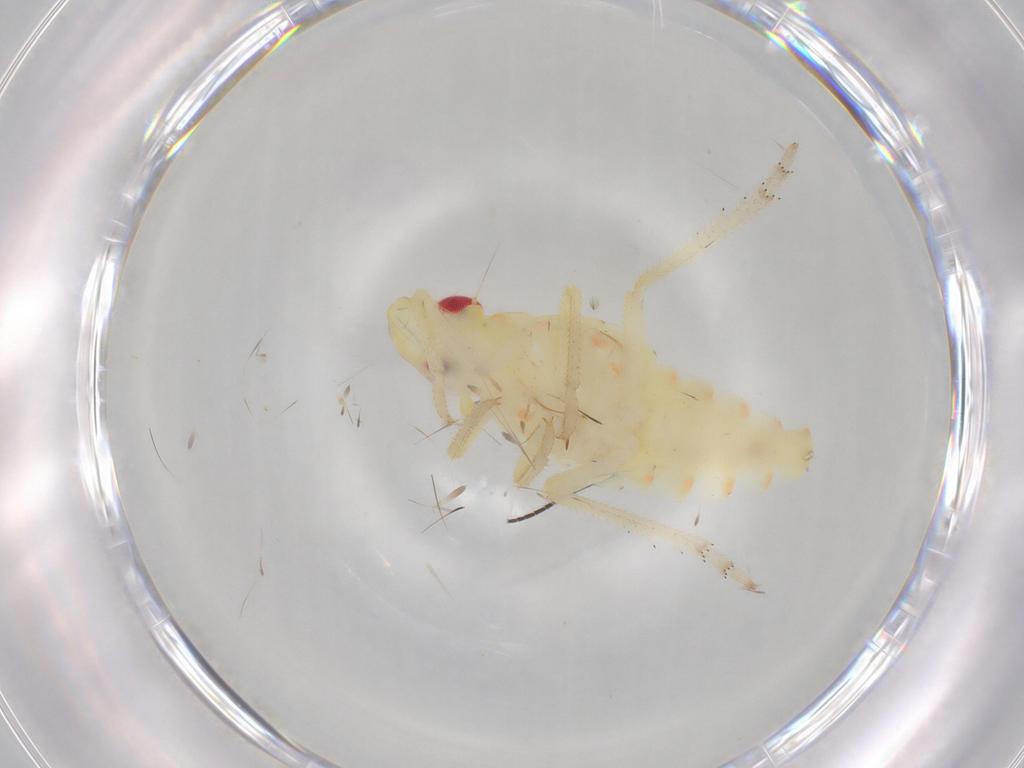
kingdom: Animalia
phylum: Arthropoda
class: Insecta
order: Hemiptera
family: Tropiduchidae
